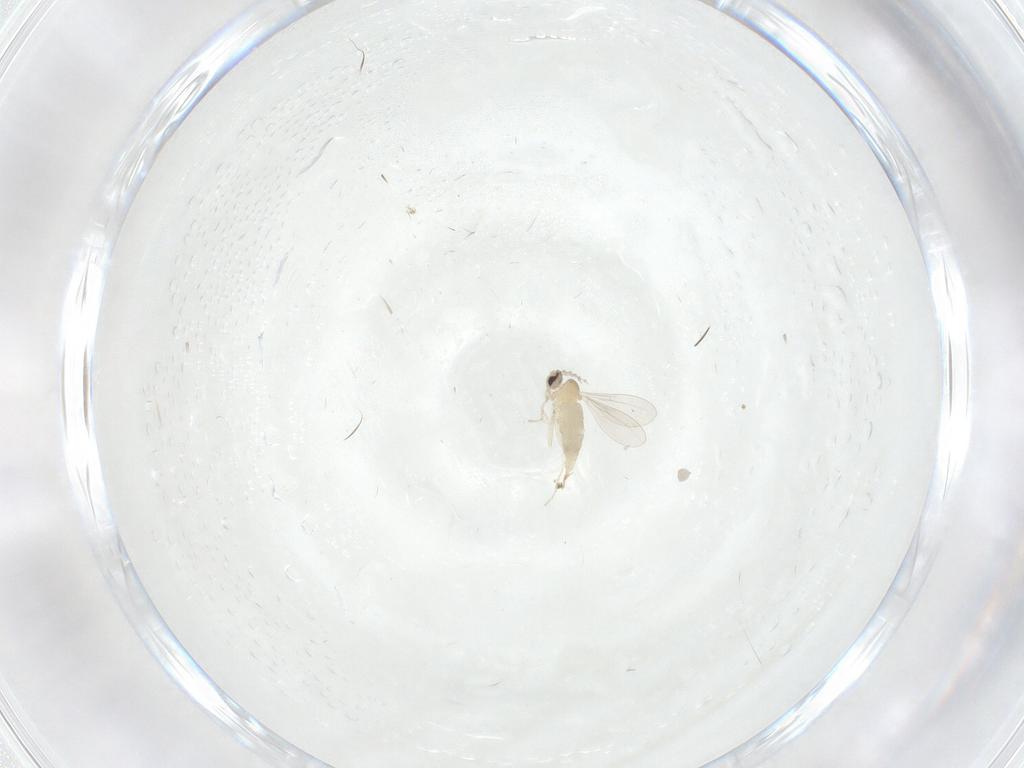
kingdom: Animalia
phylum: Arthropoda
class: Insecta
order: Diptera
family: Cecidomyiidae
